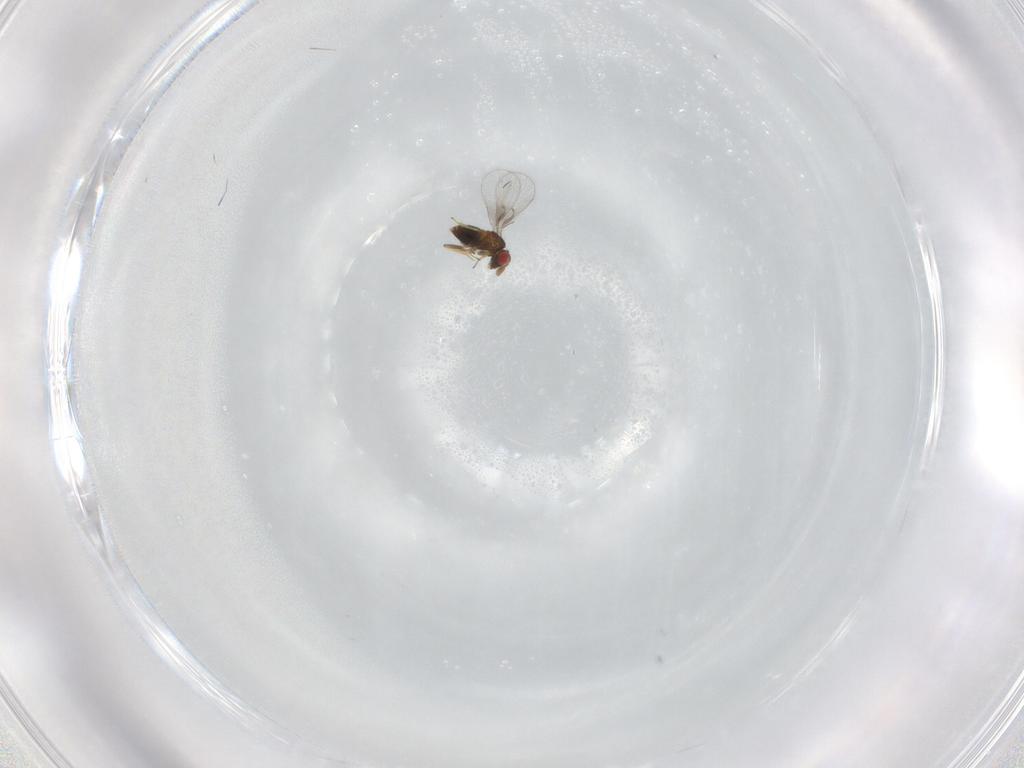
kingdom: Animalia
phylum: Arthropoda
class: Insecta
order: Hymenoptera
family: Trichogrammatidae
